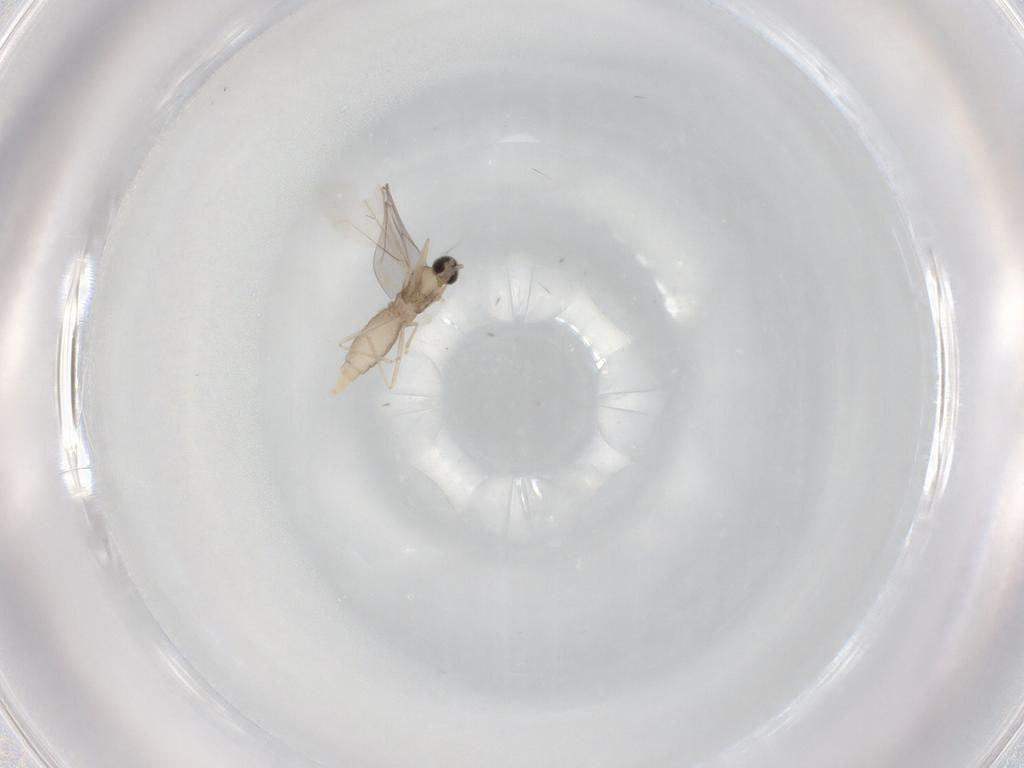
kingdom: Animalia
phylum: Arthropoda
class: Insecta
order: Diptera
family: Cecidomyiidae
